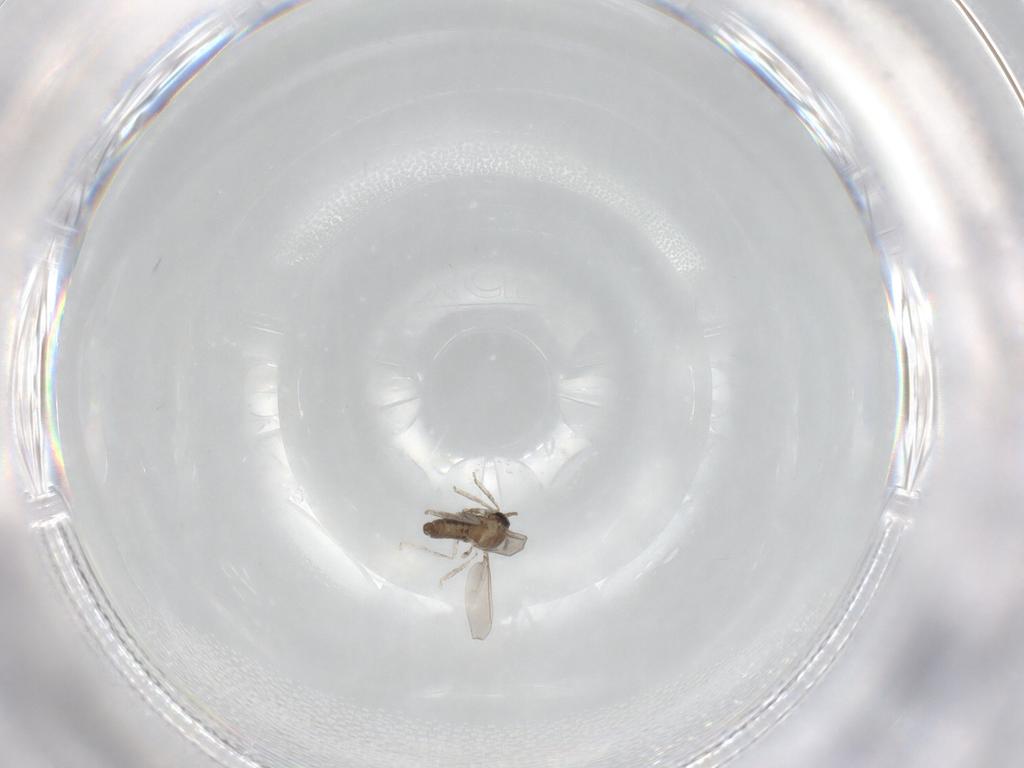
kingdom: Animalia
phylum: Arthropoda
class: Insecta
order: Diptera
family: Cecidomyiidae
